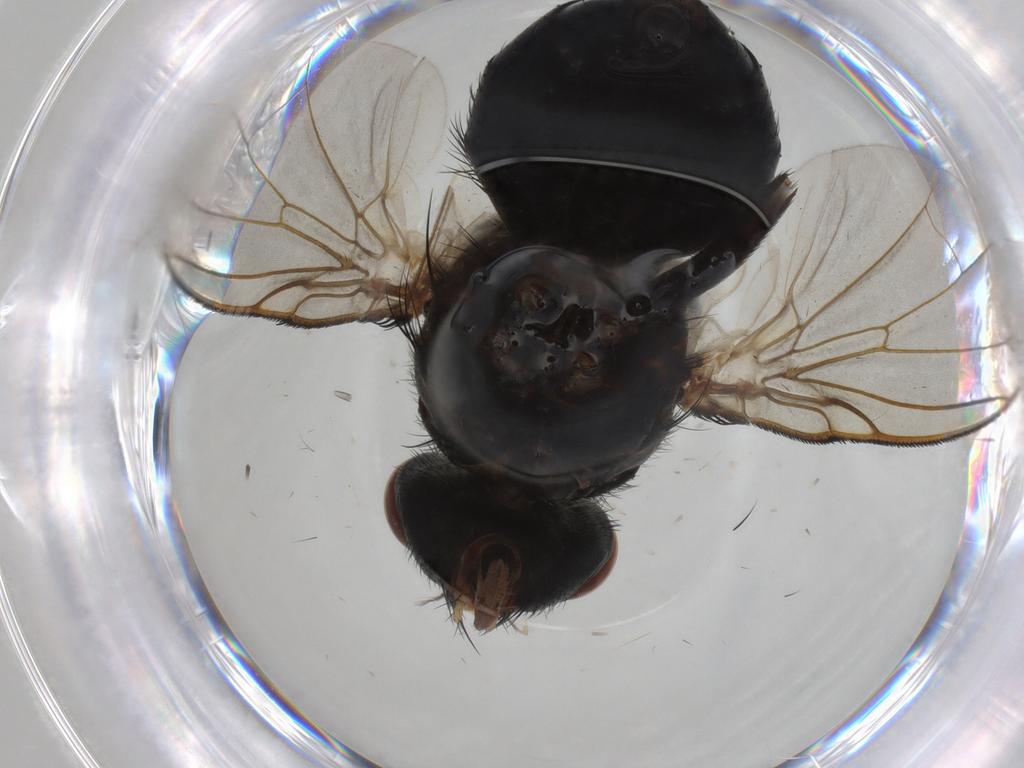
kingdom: Animalia
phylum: Arthropoda
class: Insecta
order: Diptera
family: Calliphoridae
